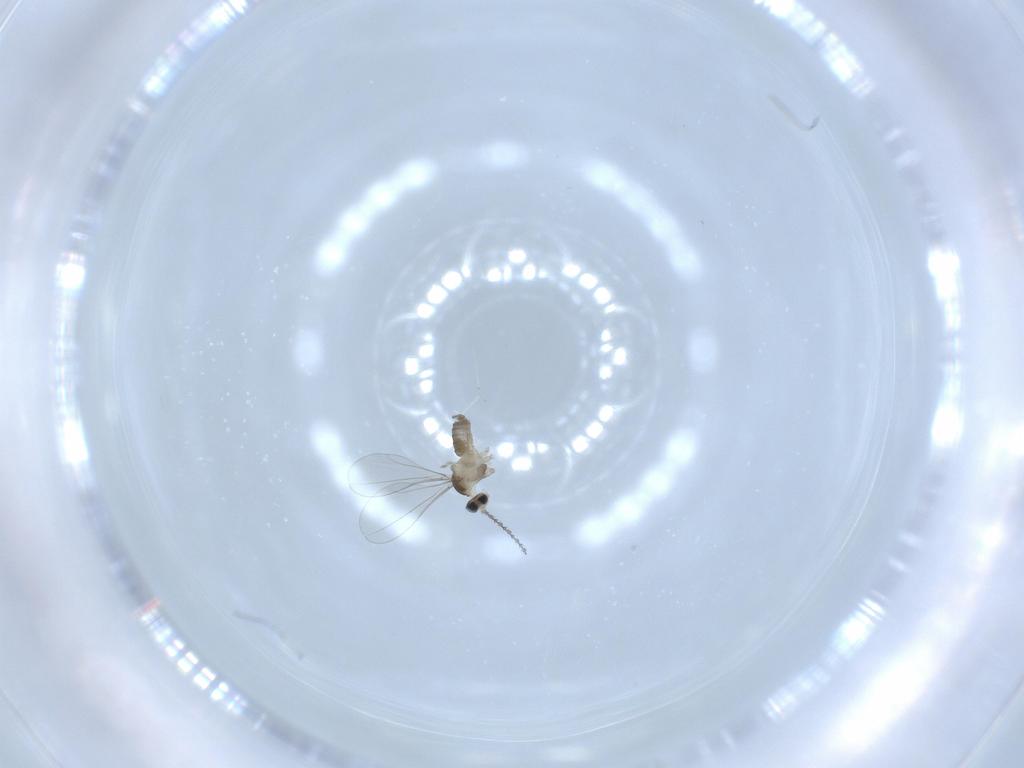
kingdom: Animalia
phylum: Arthropoda
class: Insecta
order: Diptera
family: Cecidomyiidae
